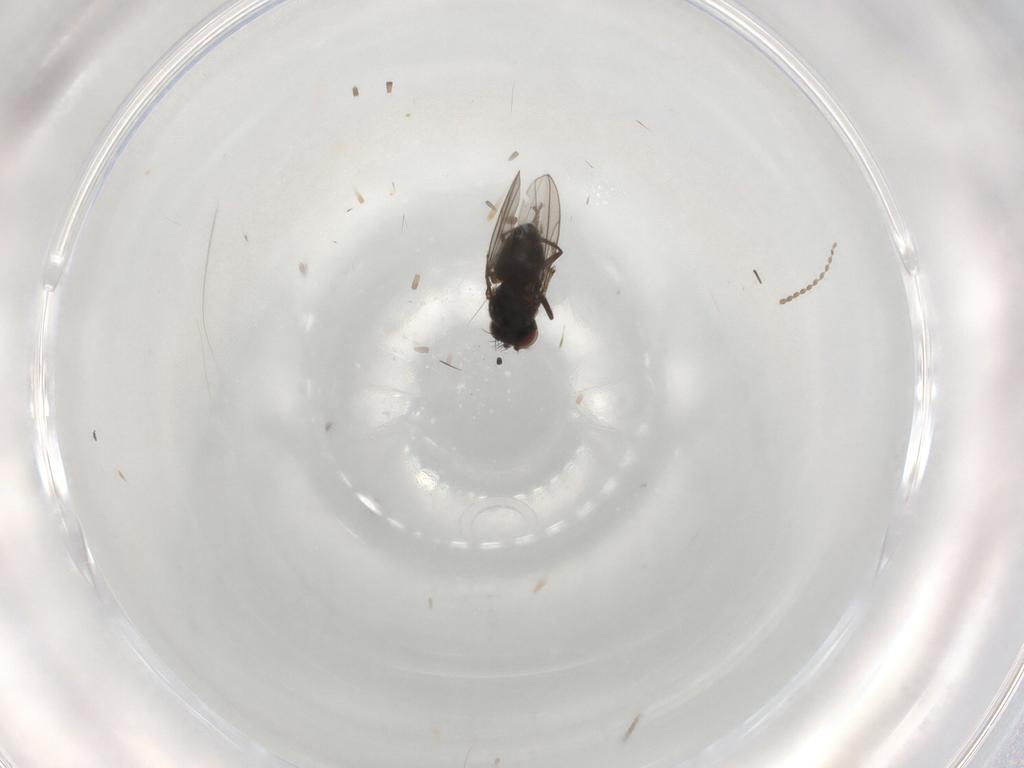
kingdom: Animalia
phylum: Arthropoda
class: Insecta
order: Diptera
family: Ephydridae
